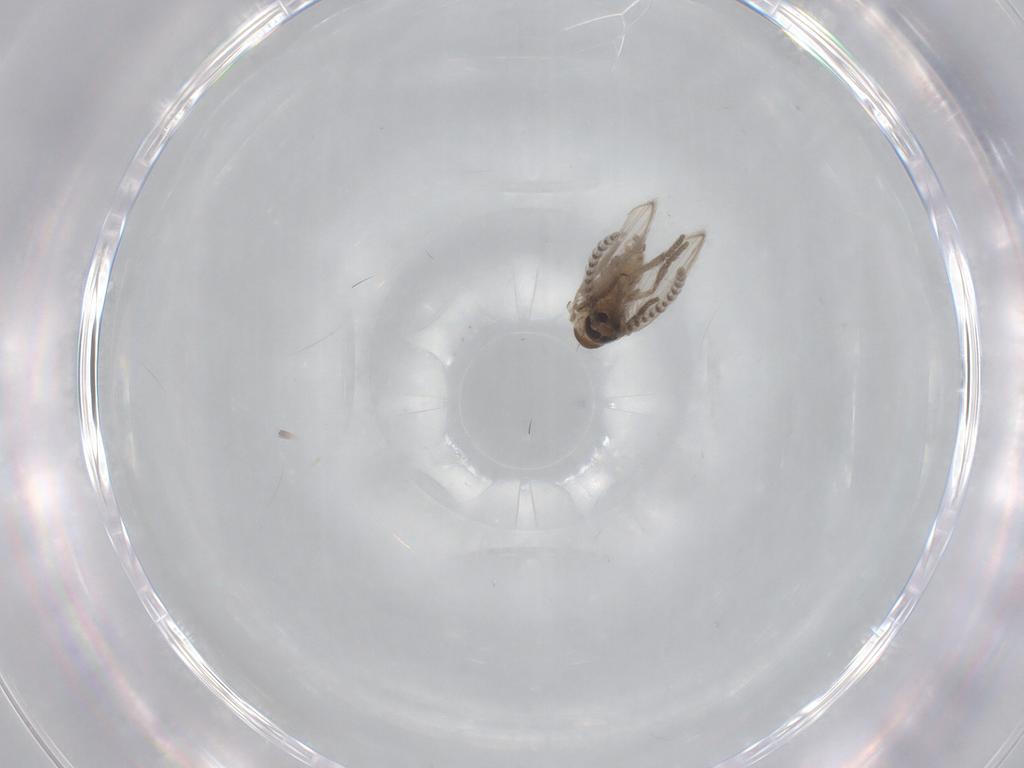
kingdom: Animalia
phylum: Arthropoda
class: Insecta
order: Diptera
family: Psychodidae
